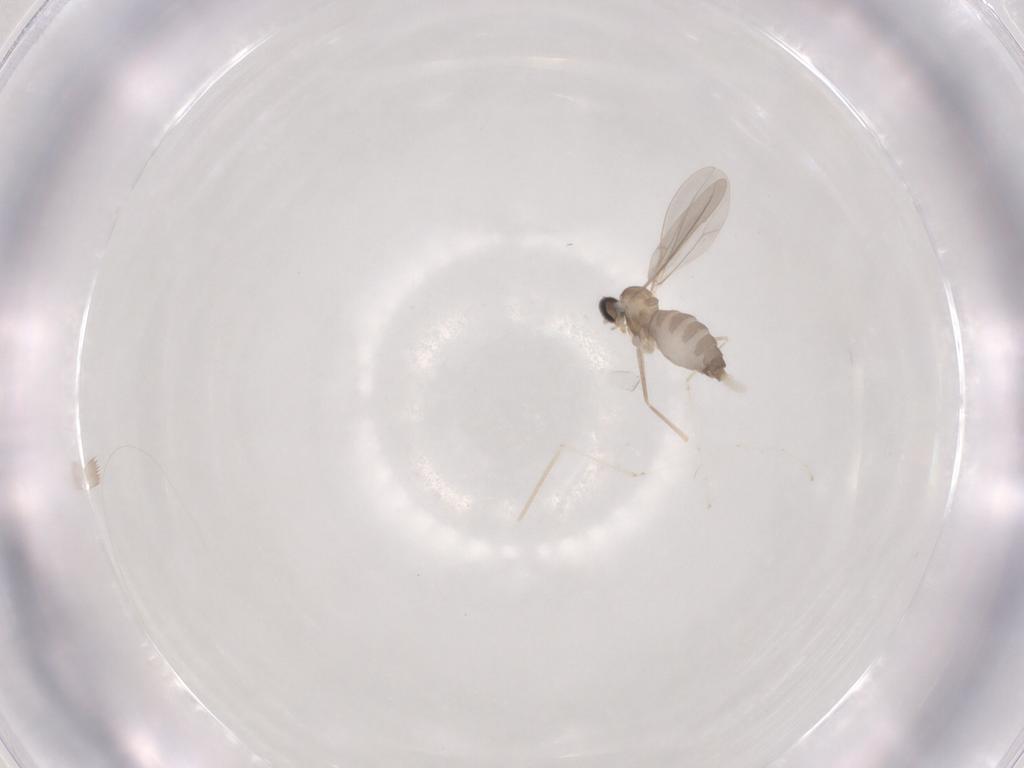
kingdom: Animalia
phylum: Arthropoda
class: Insecta
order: Diptera
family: Cecidomyiidae
